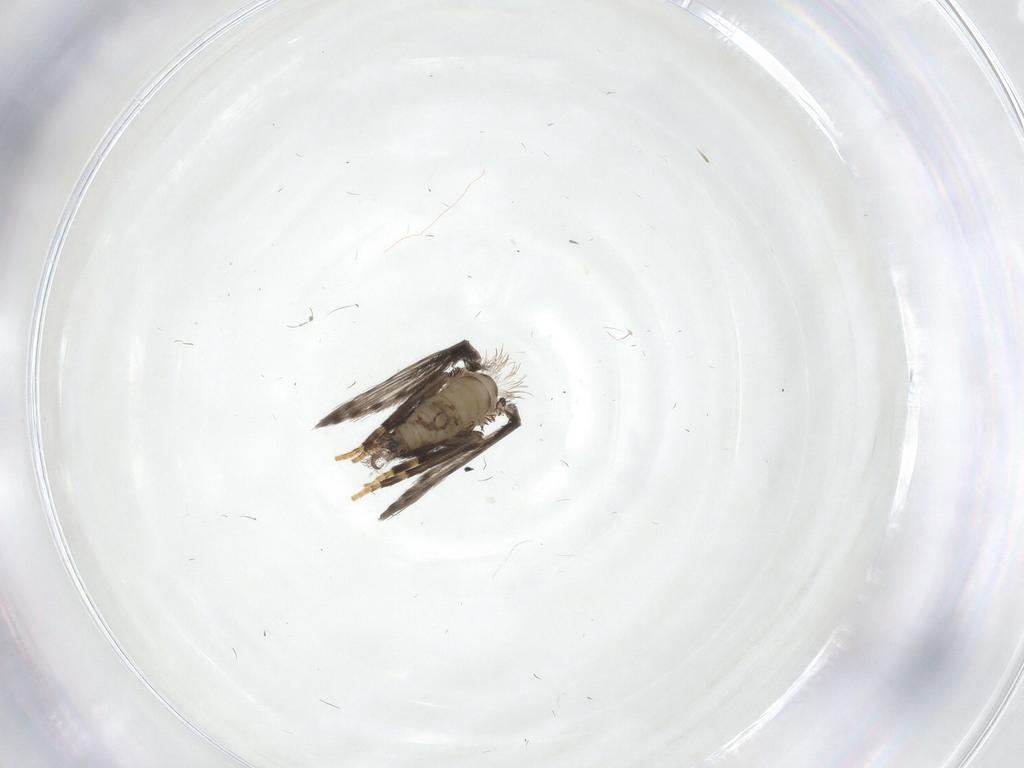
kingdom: Animalia
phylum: Arthropoda
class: Insecta
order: Diptera
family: Psychodidae
